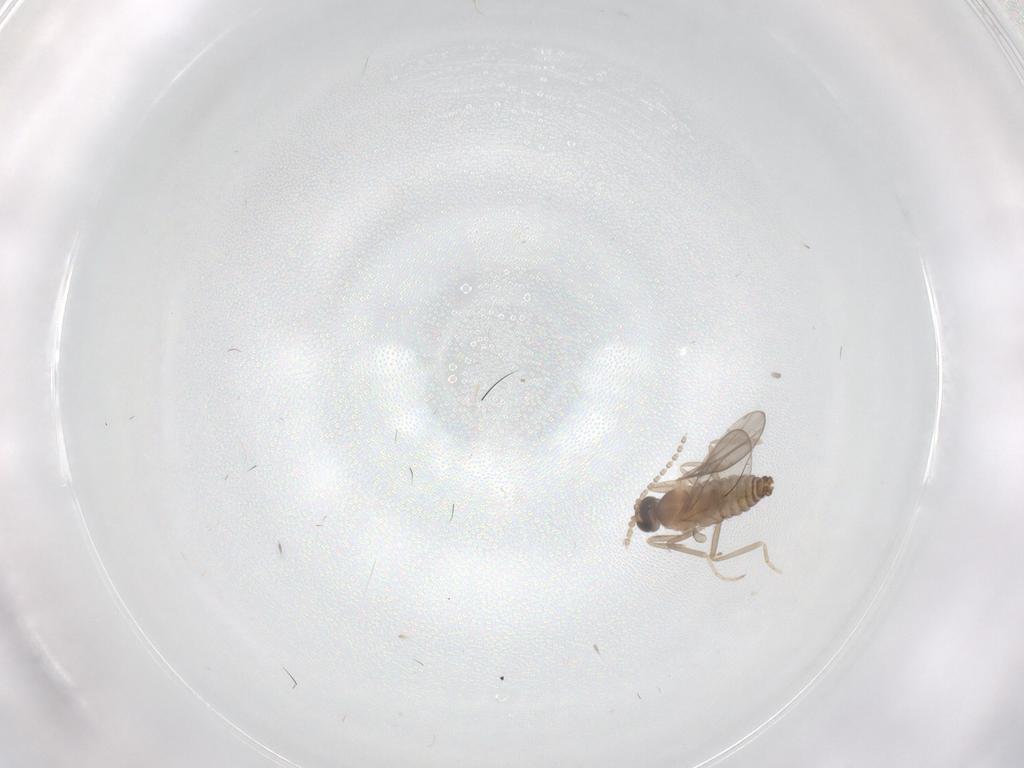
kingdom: Animalia
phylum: Arthropoda
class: Insecta
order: Diptera
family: Cecidomyiidae
